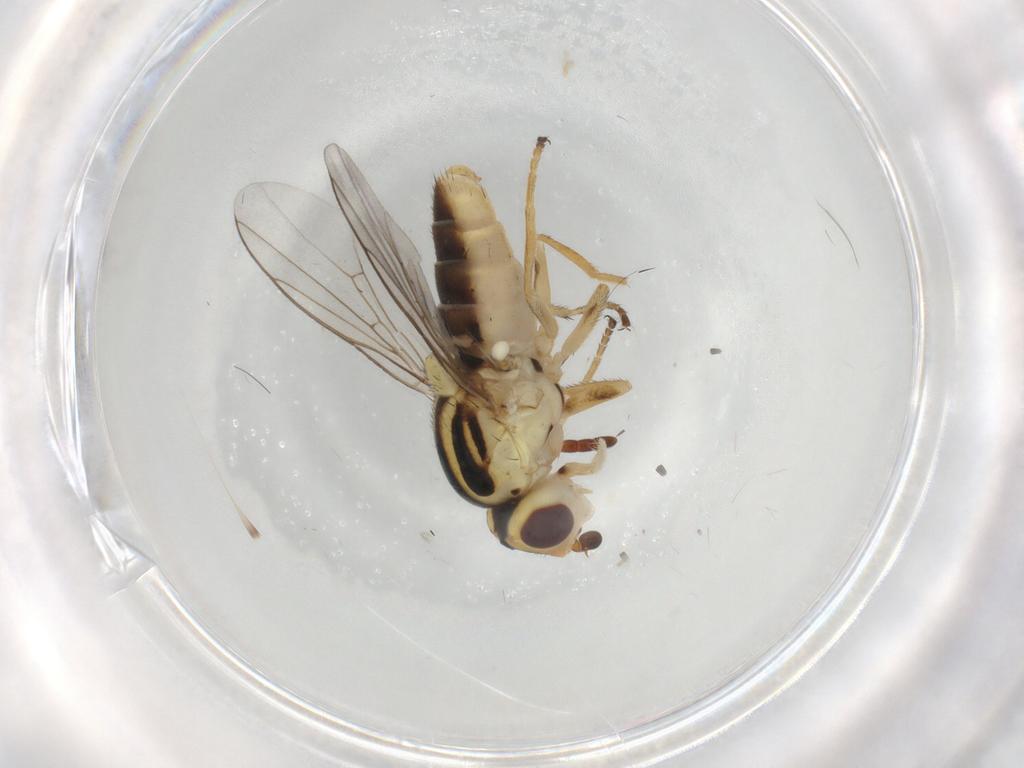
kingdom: Animalia
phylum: Arthropoda
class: Insecta
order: Diptera
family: Chloropidae
